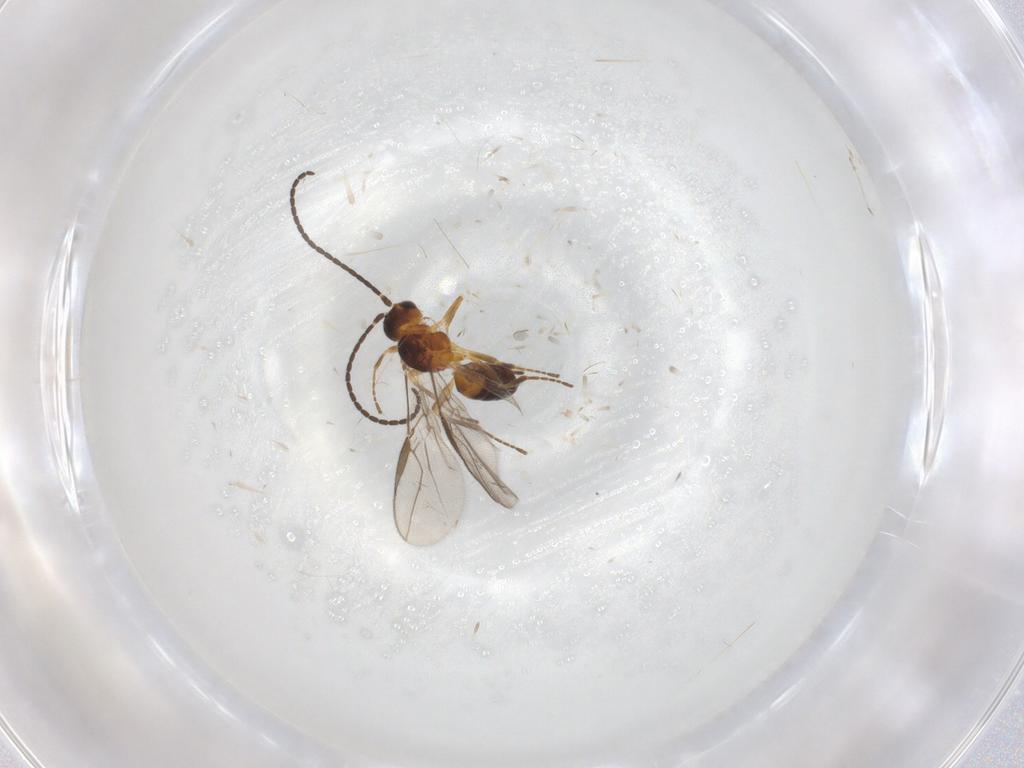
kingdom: Animalia
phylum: Arthropoda
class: Insecta
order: Hymenoptera
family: Braconidae
